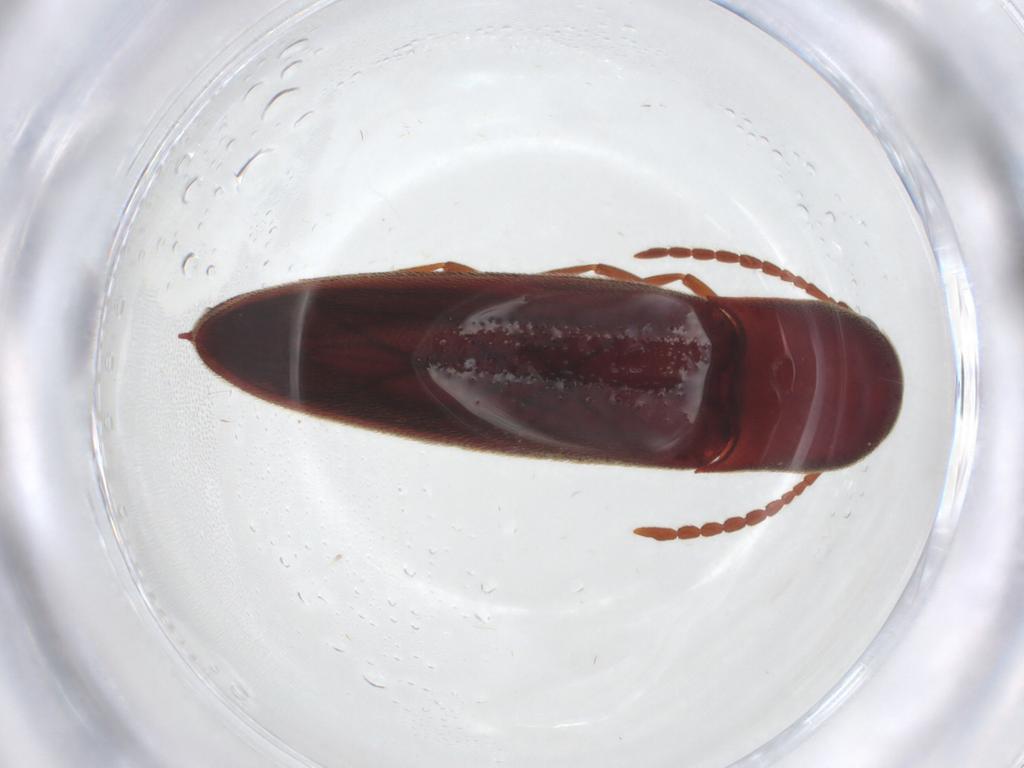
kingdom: Animalia
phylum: Arthropoda
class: Insecta
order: Coleoptera
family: Eucnemidae
